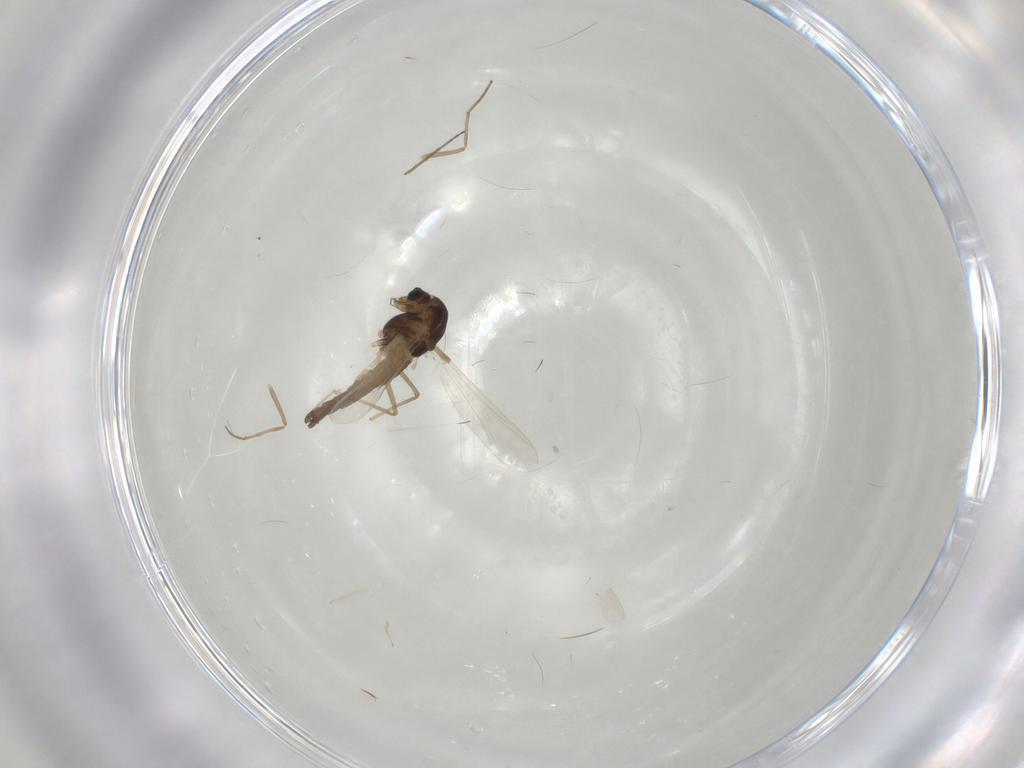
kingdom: Animalia
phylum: Arthropoda
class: Insecta
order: Diptera
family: Chironomidae
